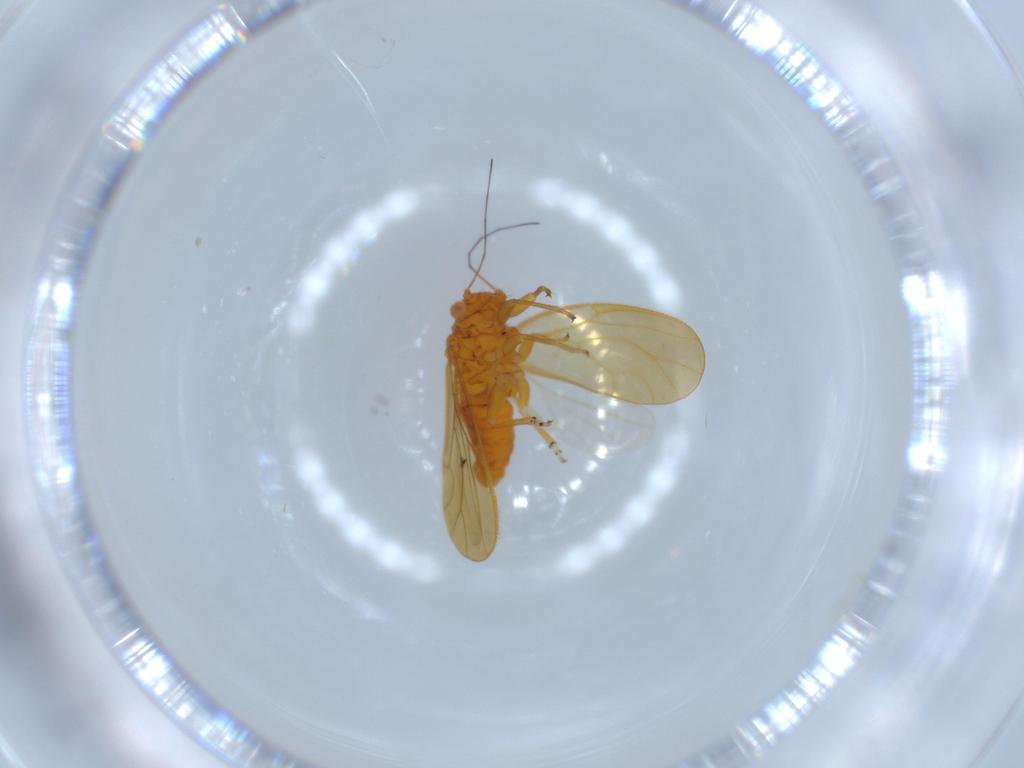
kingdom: Animalia
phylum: Arthropoda
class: Insecta
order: Hemiptera
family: Psyllidae
